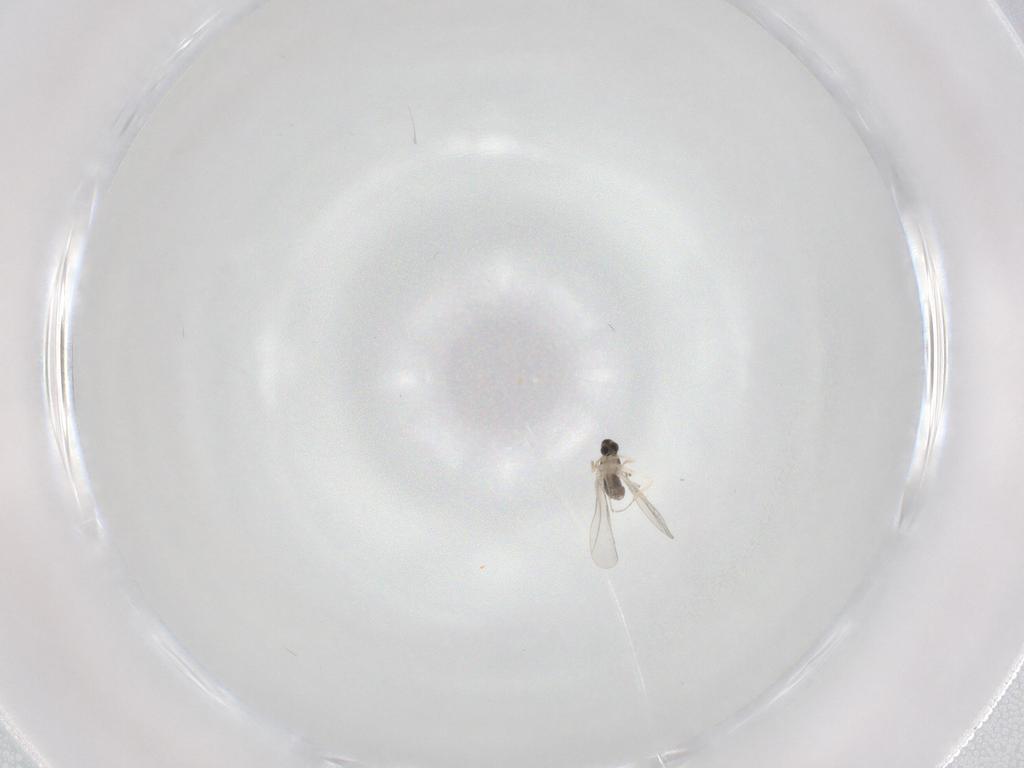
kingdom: Animalia
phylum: Arthropoda
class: Insecta
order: Diptera
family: Cecidomyiidae
